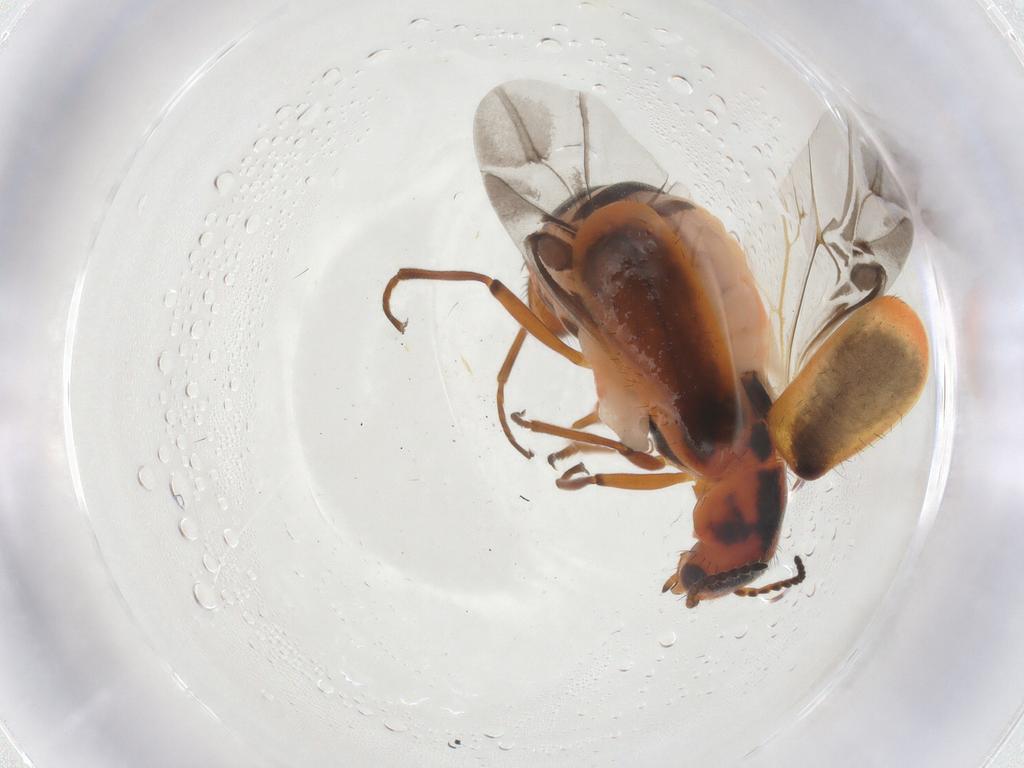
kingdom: Animalia
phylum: Arthropoda
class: Insecta
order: Coleoptera
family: Melyridae
